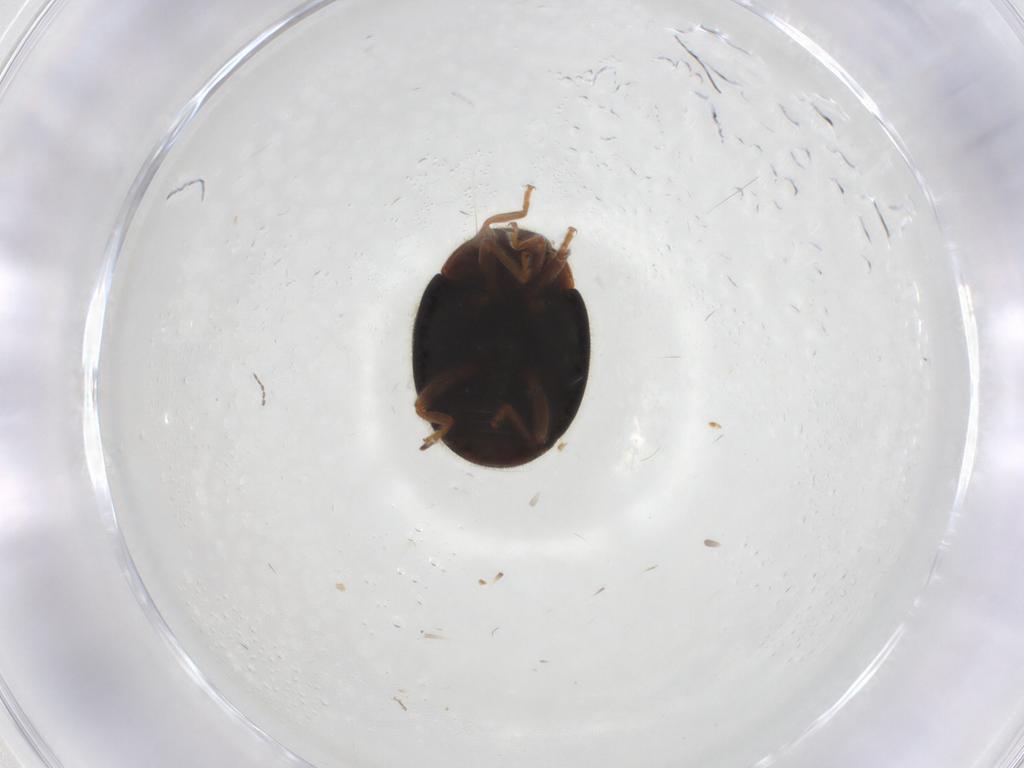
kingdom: Animalia
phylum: Arthropoda
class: Insecta
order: Coleoptera
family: Coccinellidae
